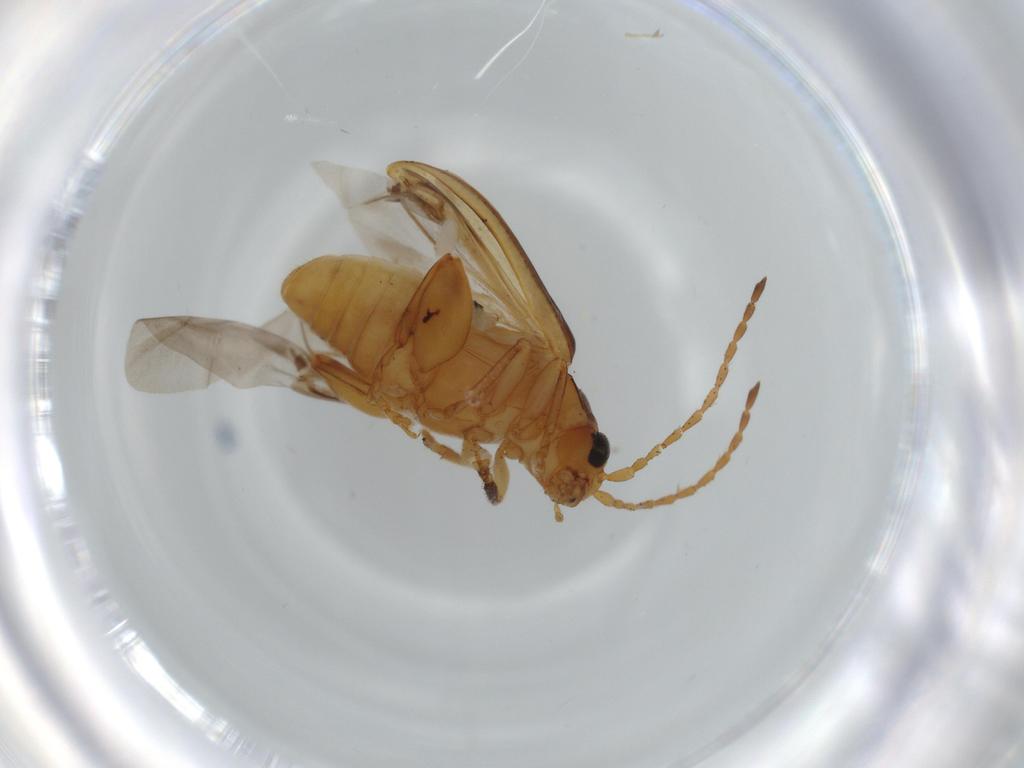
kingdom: Animalia
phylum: Arthropoda
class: Insecta
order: Coleoptera
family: Chrysomelidae
